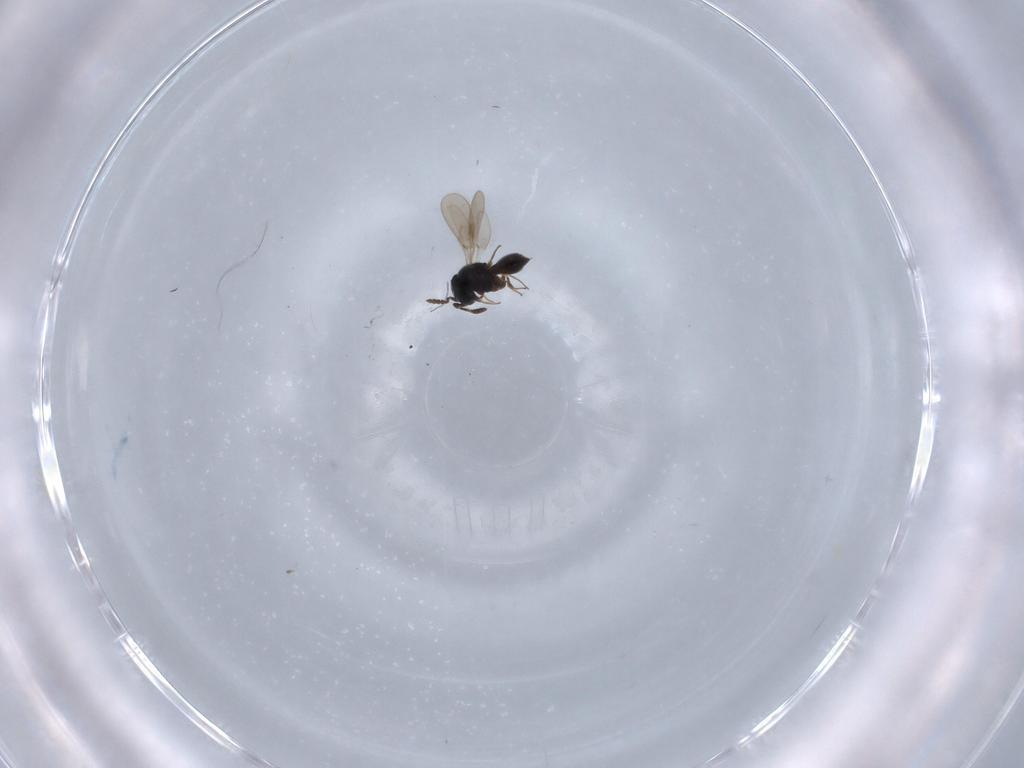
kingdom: Animalia
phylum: Arthropoda
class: Insecta
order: Hymenoptera
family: Scelionidae
